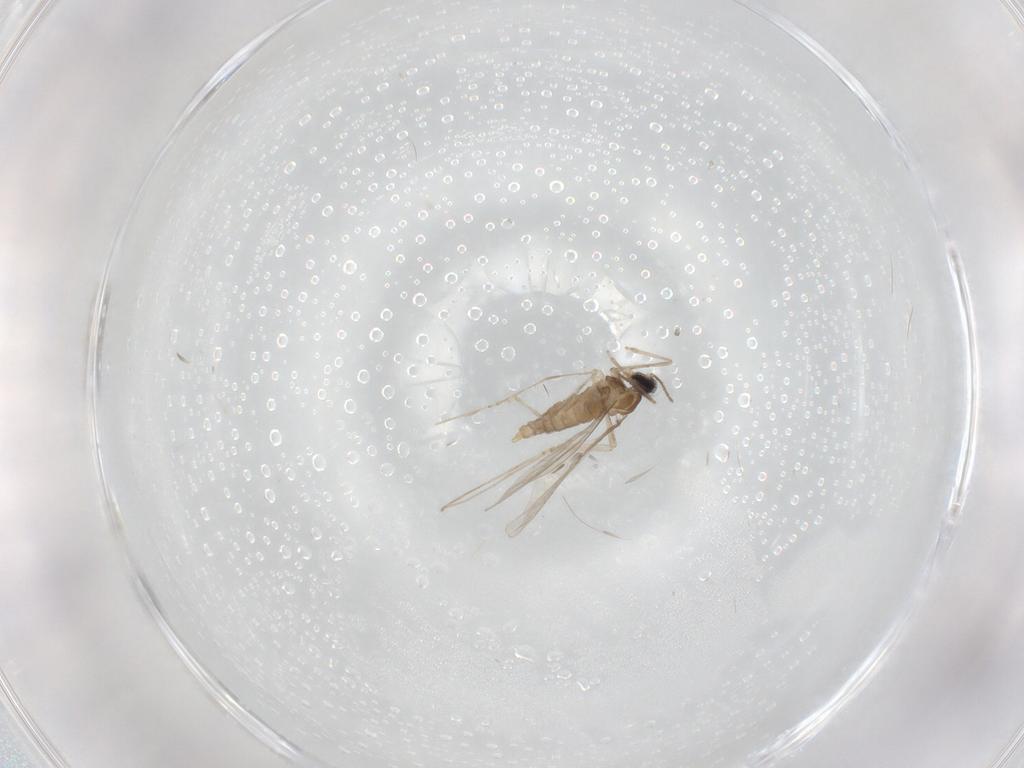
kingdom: Animalia
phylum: Arthropoda
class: Insecta
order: Diptera
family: Cecidomyiidae
